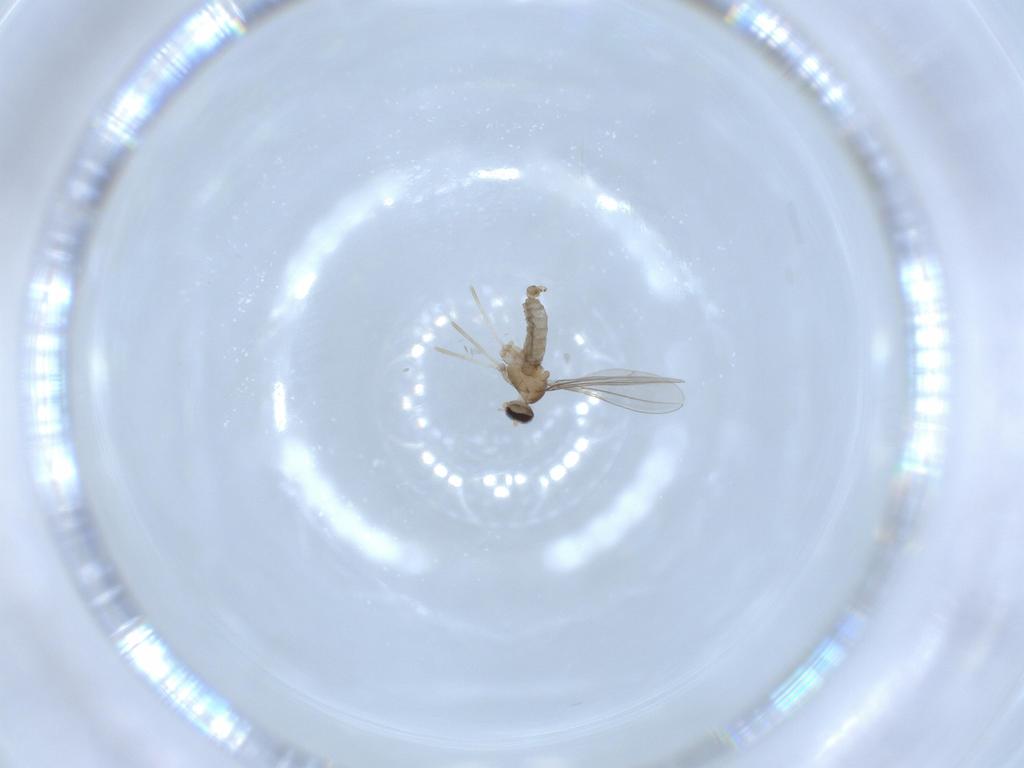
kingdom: Animalia
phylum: Arthropoda
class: Insecta
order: Diptera
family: Cecidomyiidae
